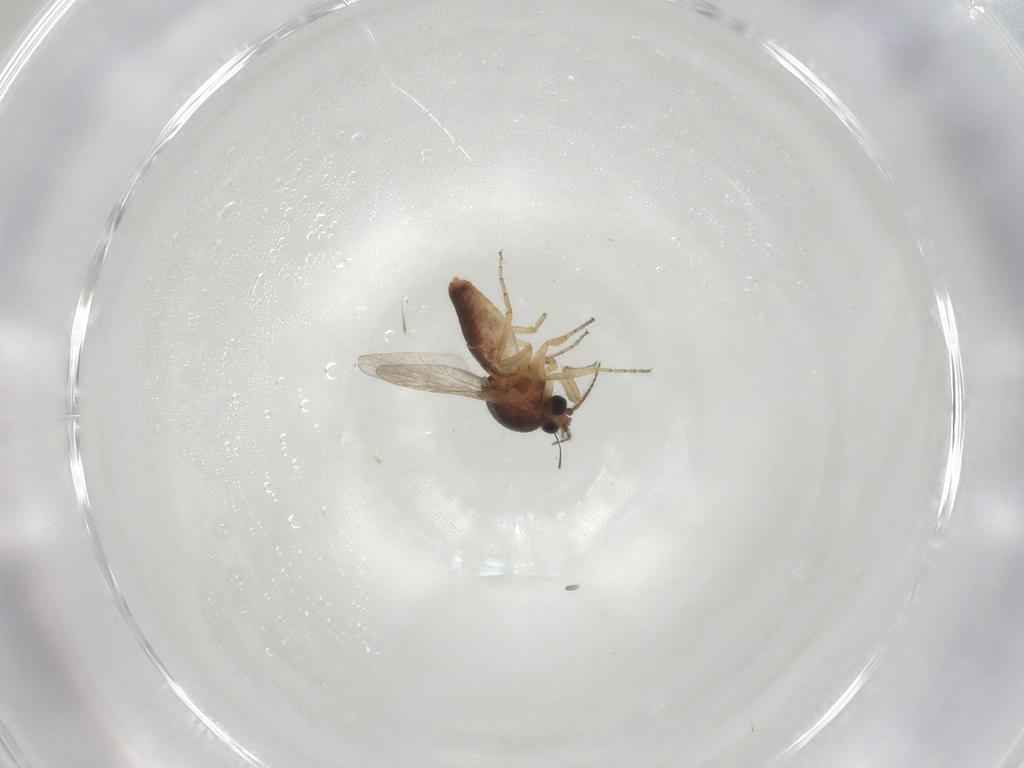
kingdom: Animalia
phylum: Arthropoda
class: Insecta
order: Diptera
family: Ceratopogonidae
